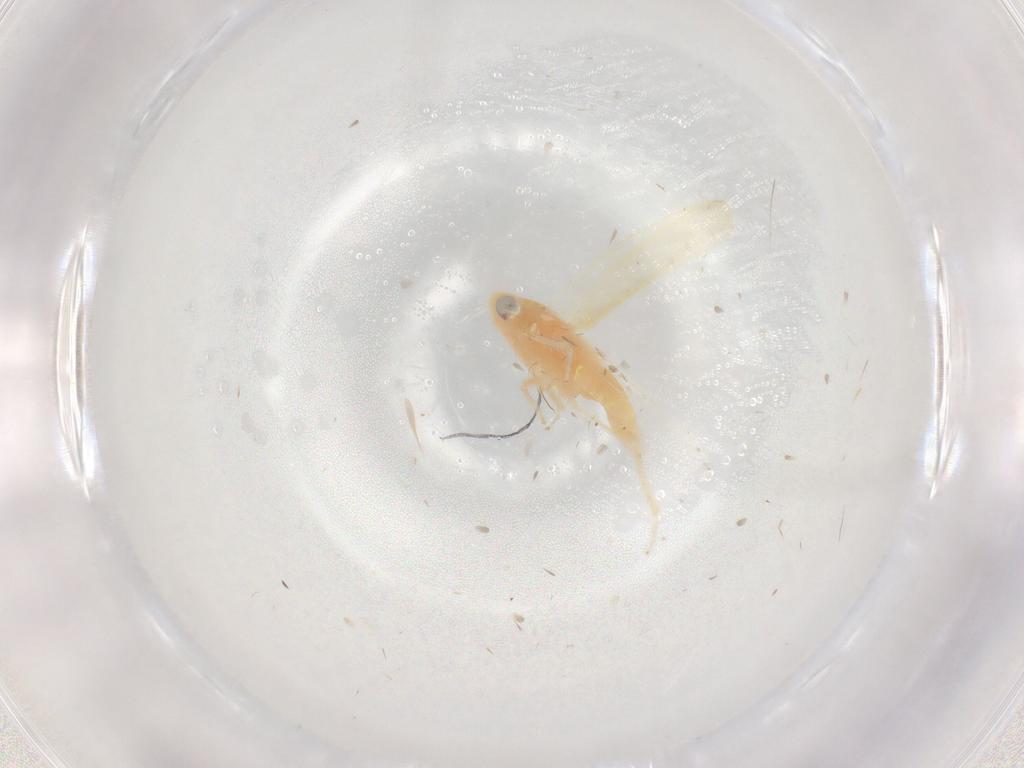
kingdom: Animalia
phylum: Arthropoda
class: Insecta
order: Hemiptera
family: Cicadellidae
